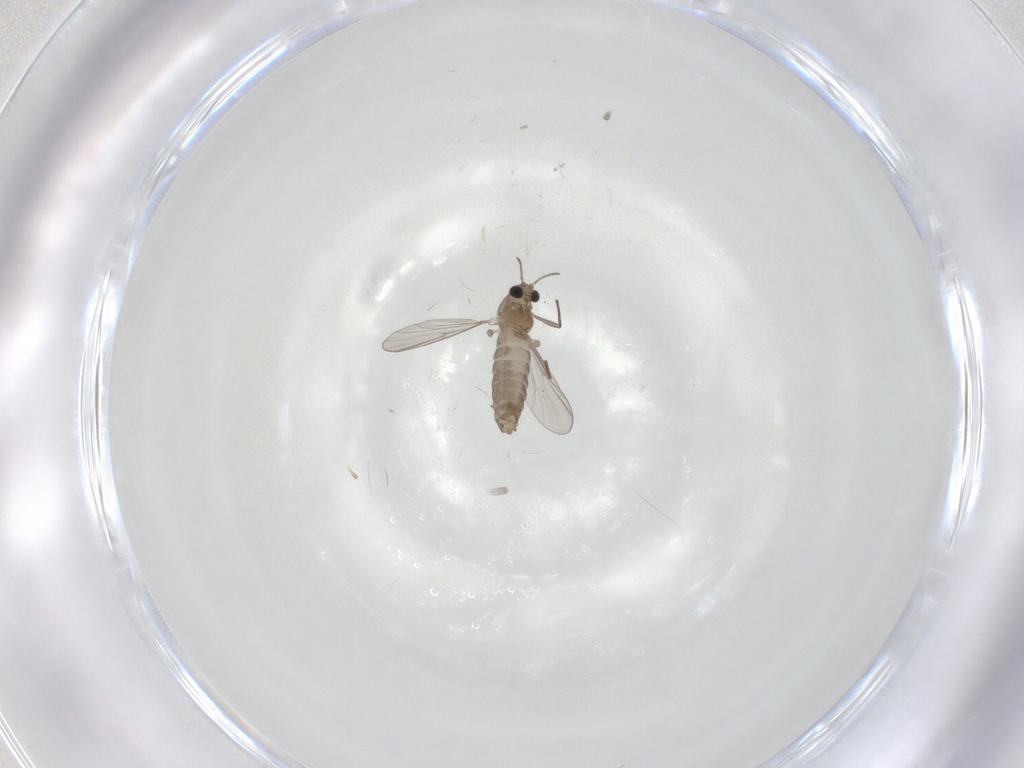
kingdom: Animalia
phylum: Arthropoda
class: Insecta
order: Diptera
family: Chironomidae
